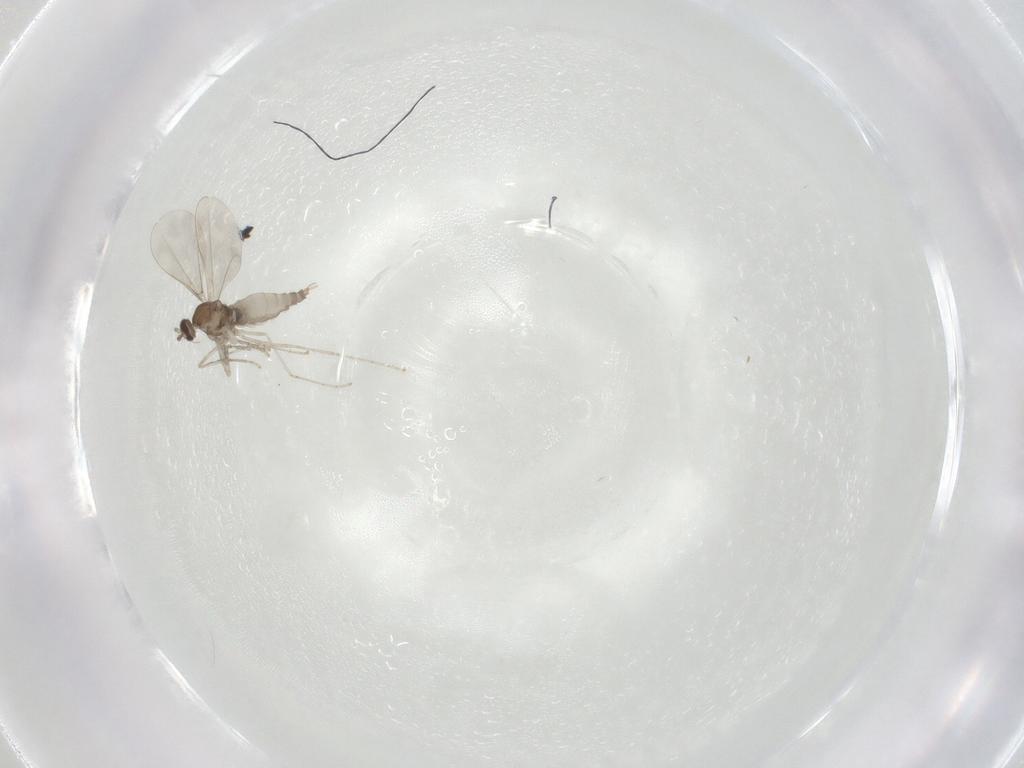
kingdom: Animalia
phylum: Arthropoda
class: Insecta
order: Diptera
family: Syrphidae
